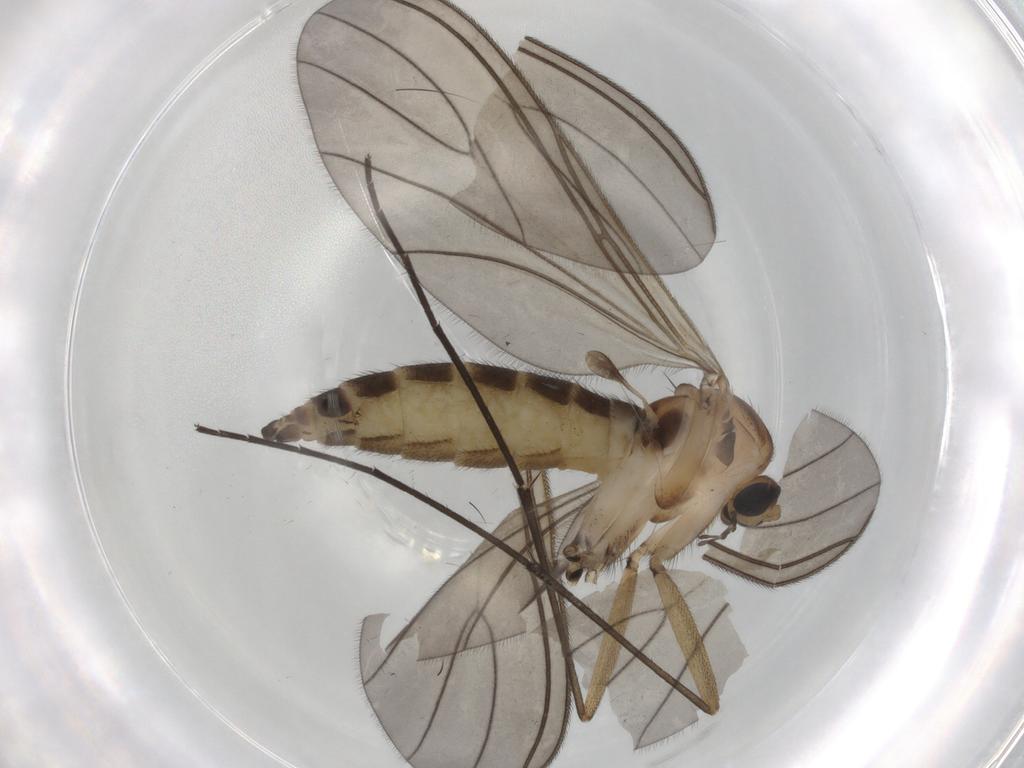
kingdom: Animalia
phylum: Arthropoda
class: Insecta
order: Diptera
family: Sciaridae
